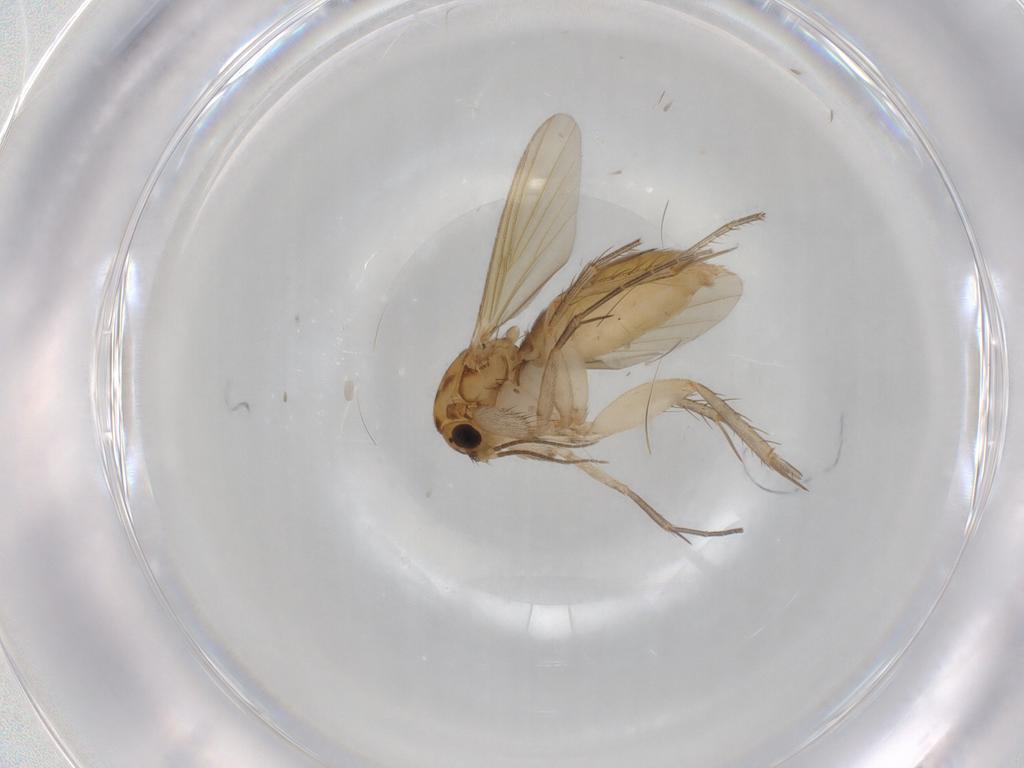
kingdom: Animalia
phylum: Arthropoda
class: Insecta
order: Diptera
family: Mycetophilidae
